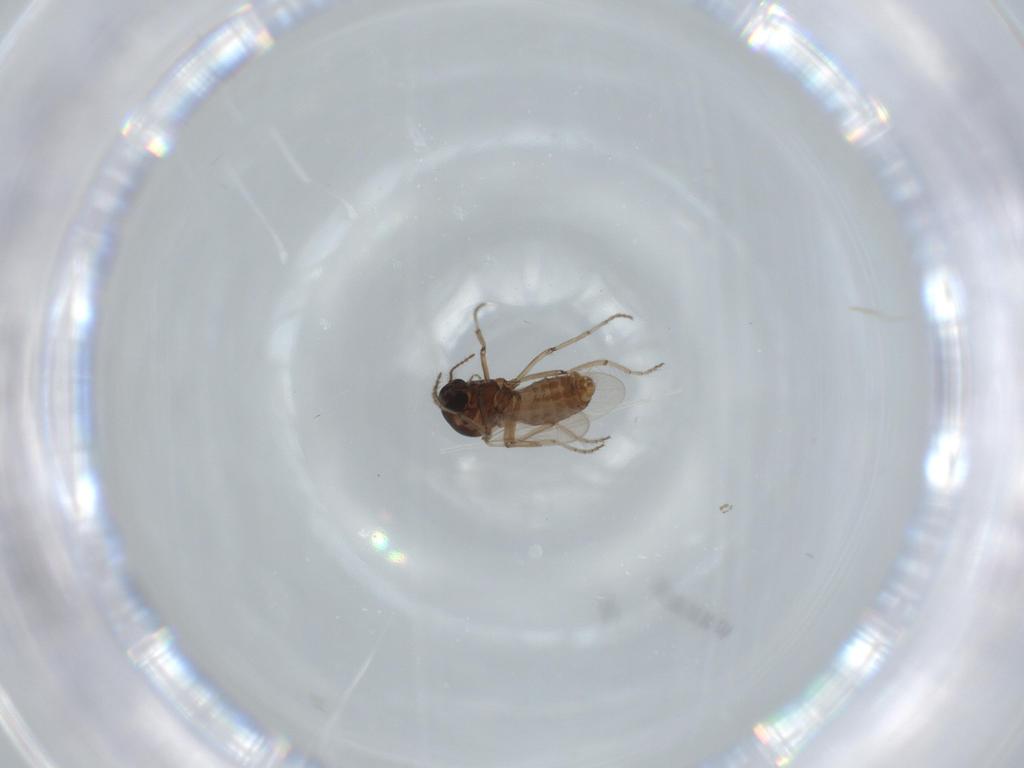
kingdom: Animalia
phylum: Arthropoda
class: Insecta
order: Diptera
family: Chironomidae
